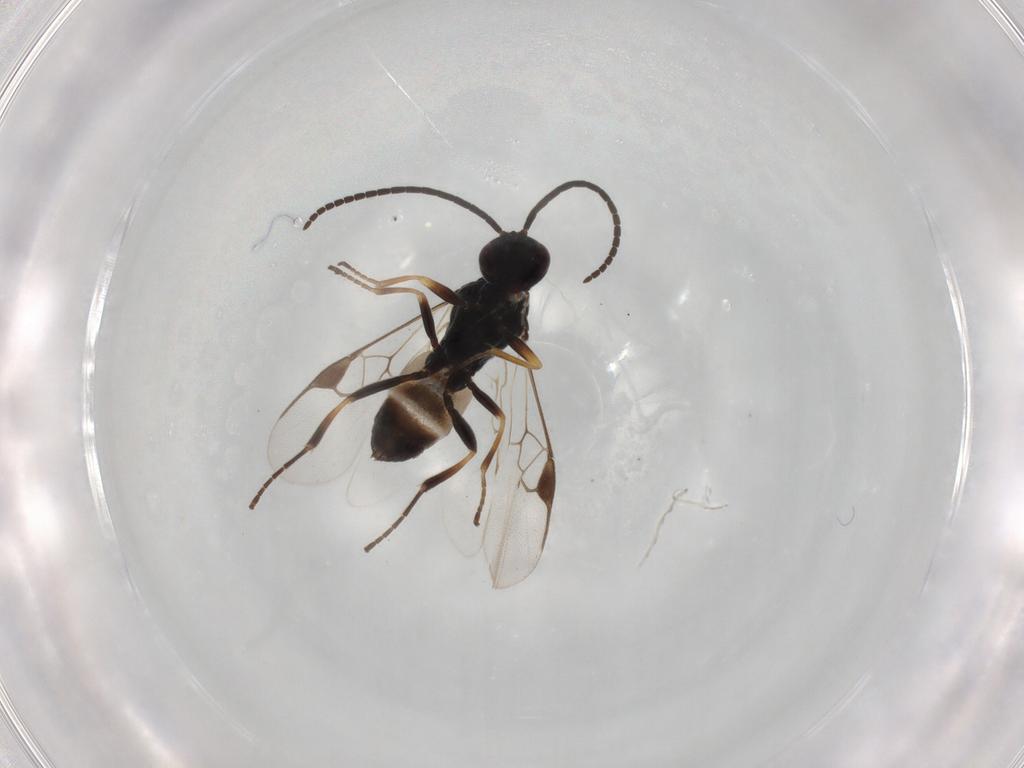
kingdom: Animalia
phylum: Arthropoda
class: Insecta
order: Hymenoptera
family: Braconidae
